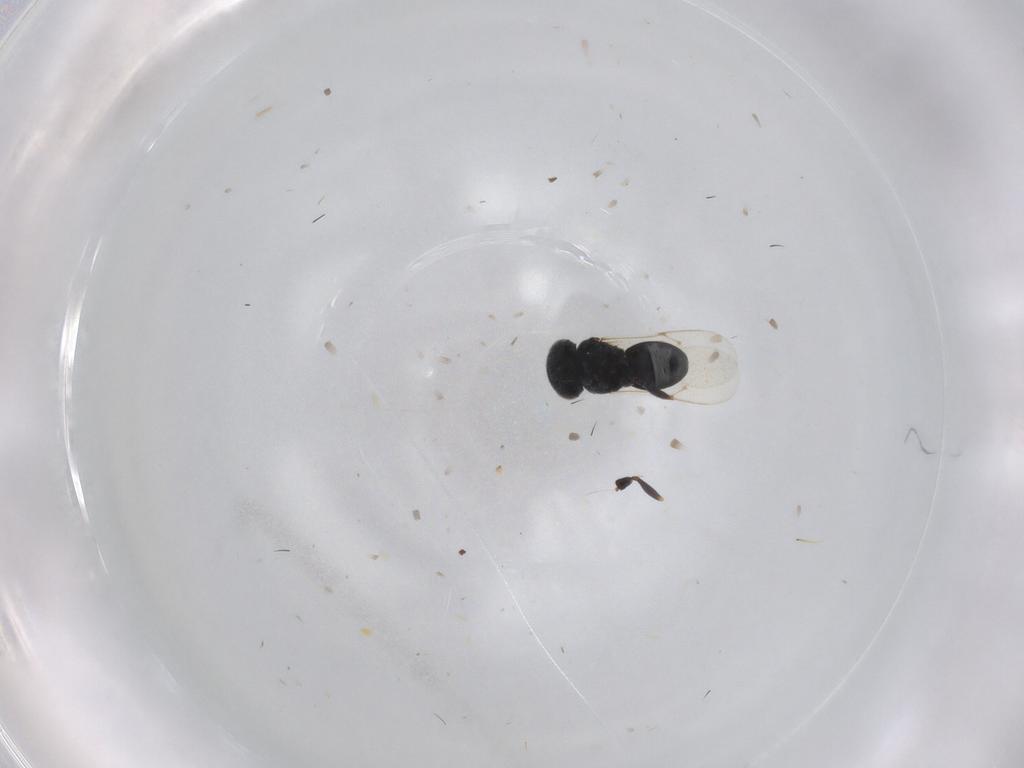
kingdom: Animalia
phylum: Arthropoda
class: Insecta
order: Hymenoptera
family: Scelionidae
